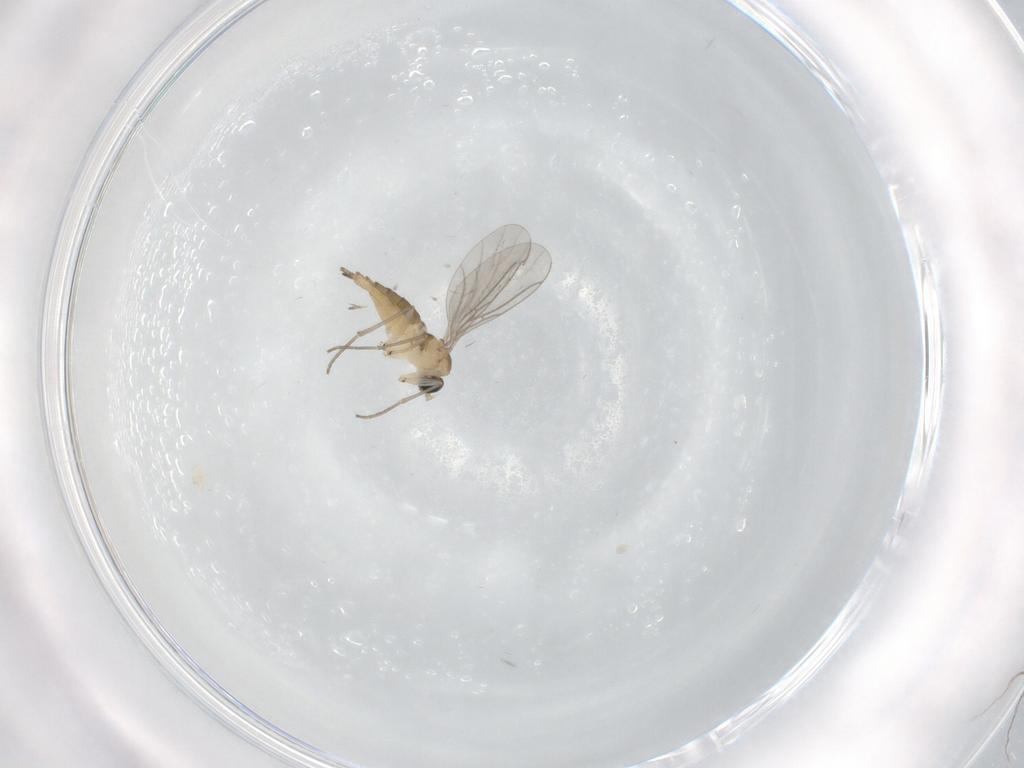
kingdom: Animalia
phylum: Arthropoda
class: Insecta
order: Diptera
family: Sciaridae
